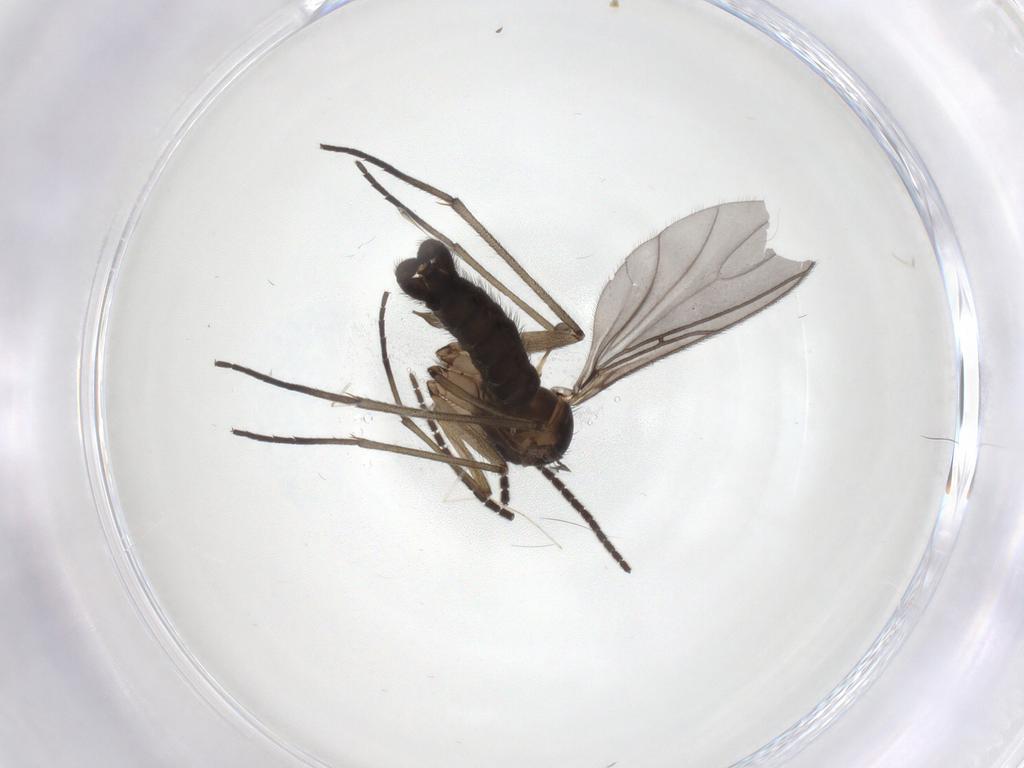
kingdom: Animalia
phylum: Arthropoda
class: Insecta
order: Diptera
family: Sciaridae
